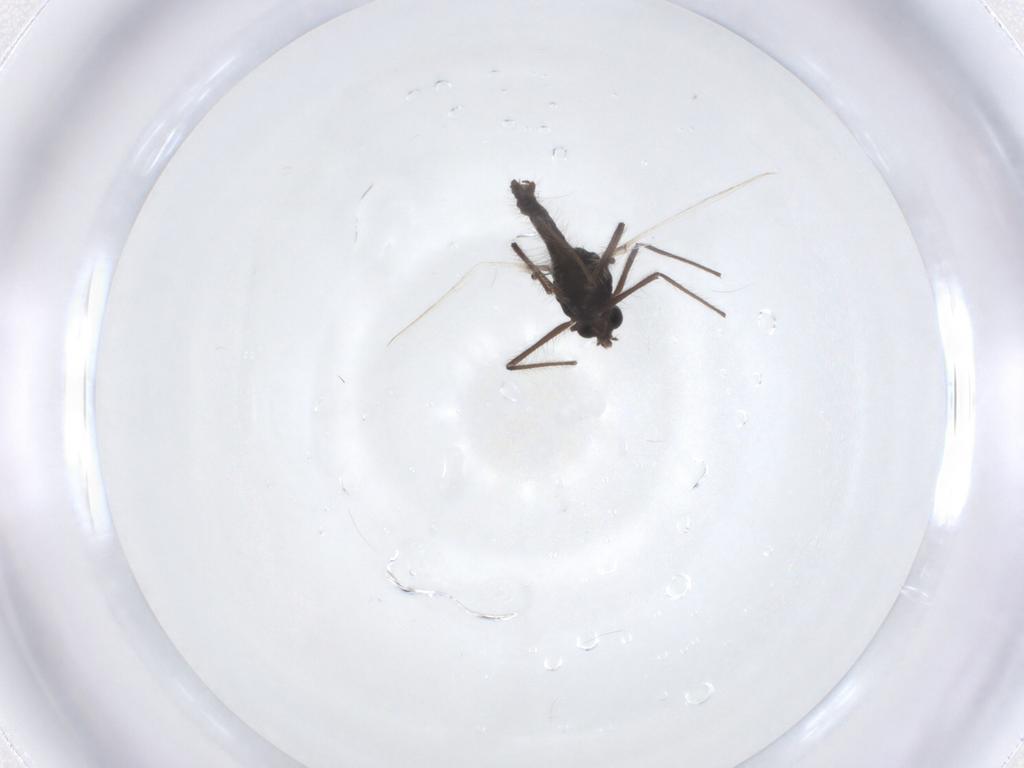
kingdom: Animalia
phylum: Arthropoda
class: Insecta
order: Diptera
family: Chironomidae
